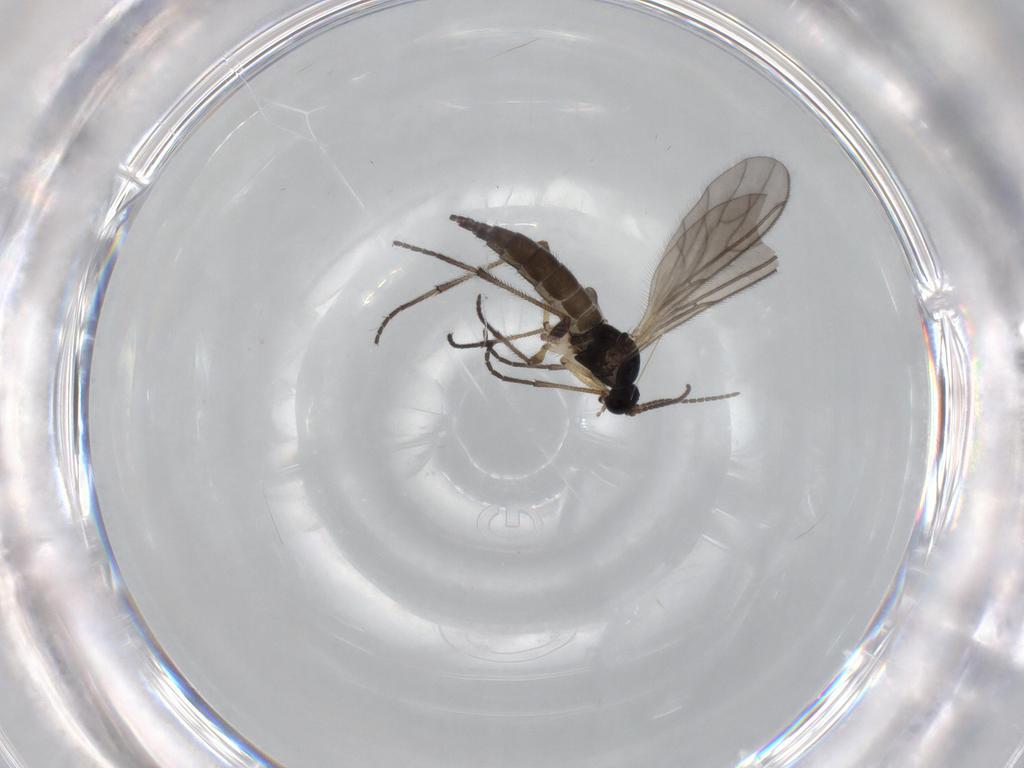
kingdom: Animalia
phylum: Arthropoda
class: Insecta
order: Diptera
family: Sciaridae
